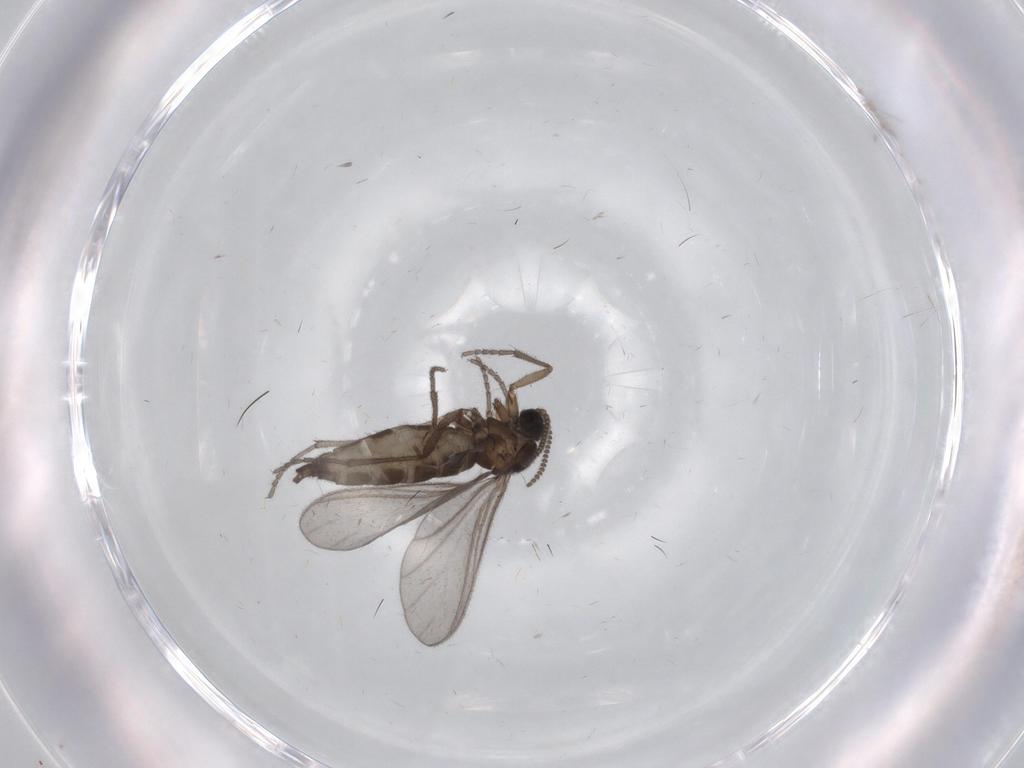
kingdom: Animalia
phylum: Arthropoda
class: Insecta
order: Diptera
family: Sciaridae
